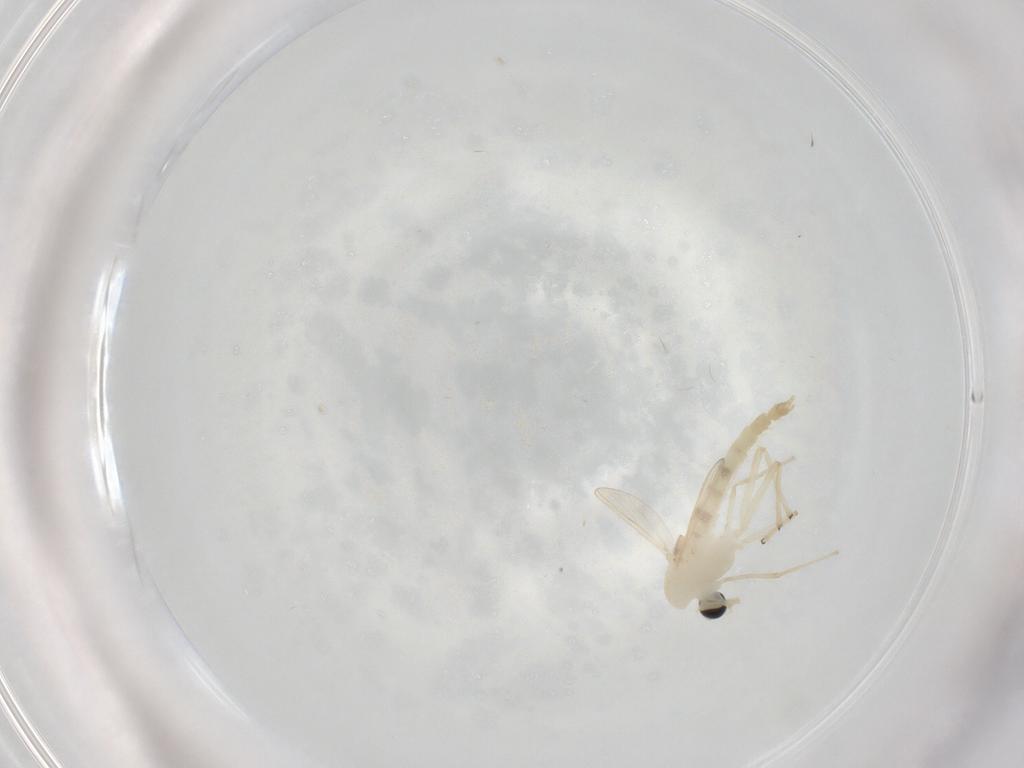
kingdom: Animalia
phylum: Arthropoda
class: Insecta
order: Diptera
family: Chironomidae
